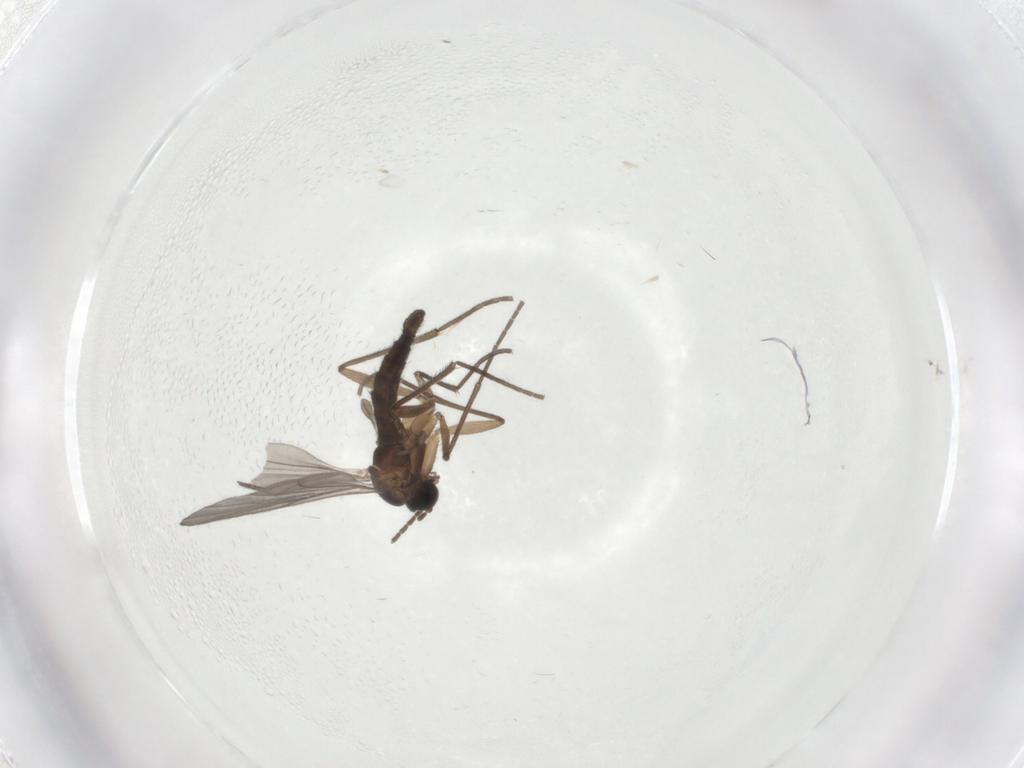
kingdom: Animalia
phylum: Arthropoda
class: Insecta
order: Diptera
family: Sciaridae
